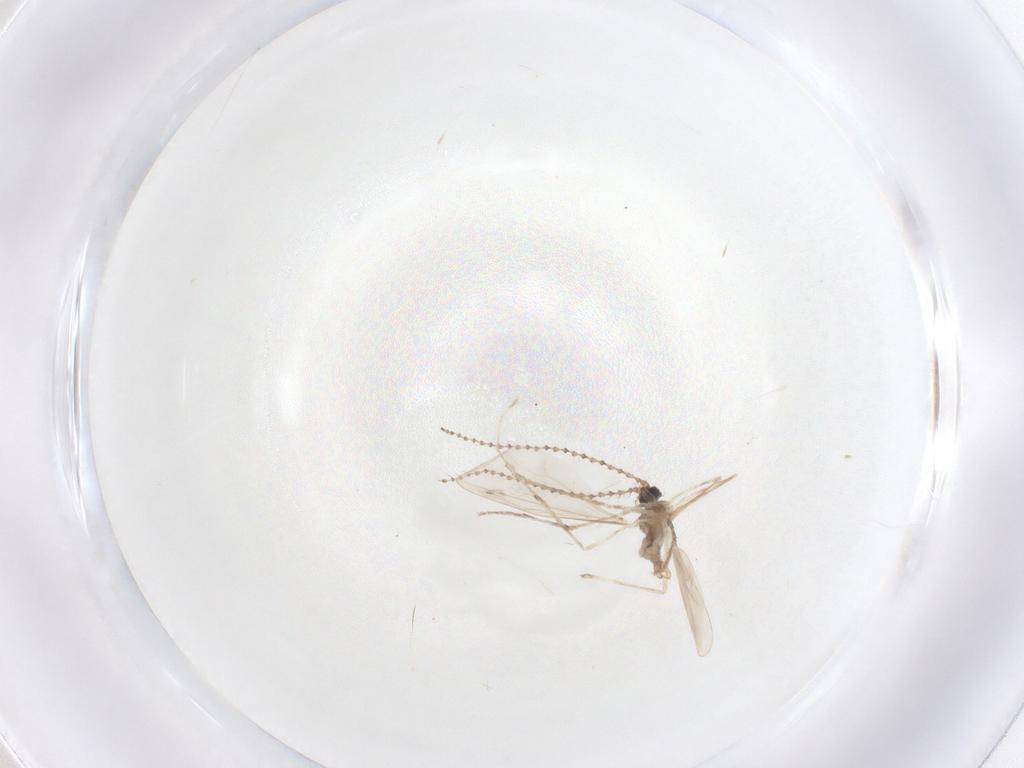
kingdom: Animalia
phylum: Arthropoda
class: Insecta
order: Diptera
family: Cecidomyiidae
